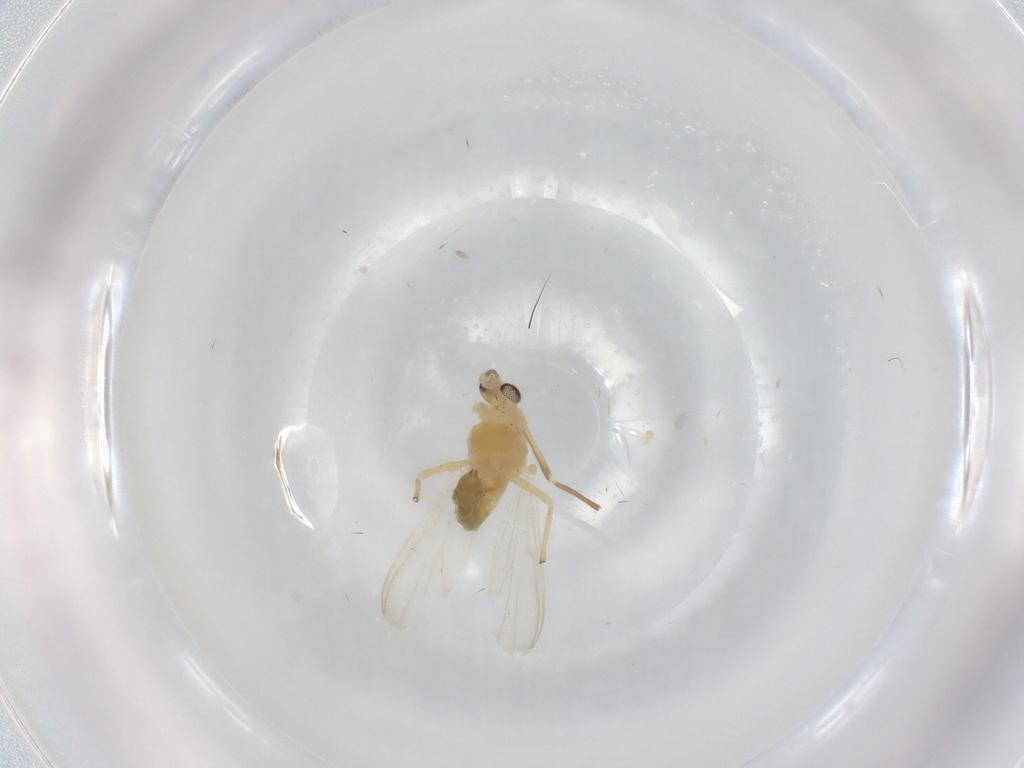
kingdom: Animalia
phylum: Arthropoda
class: Insecta
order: Diptera
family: Chironomidae
